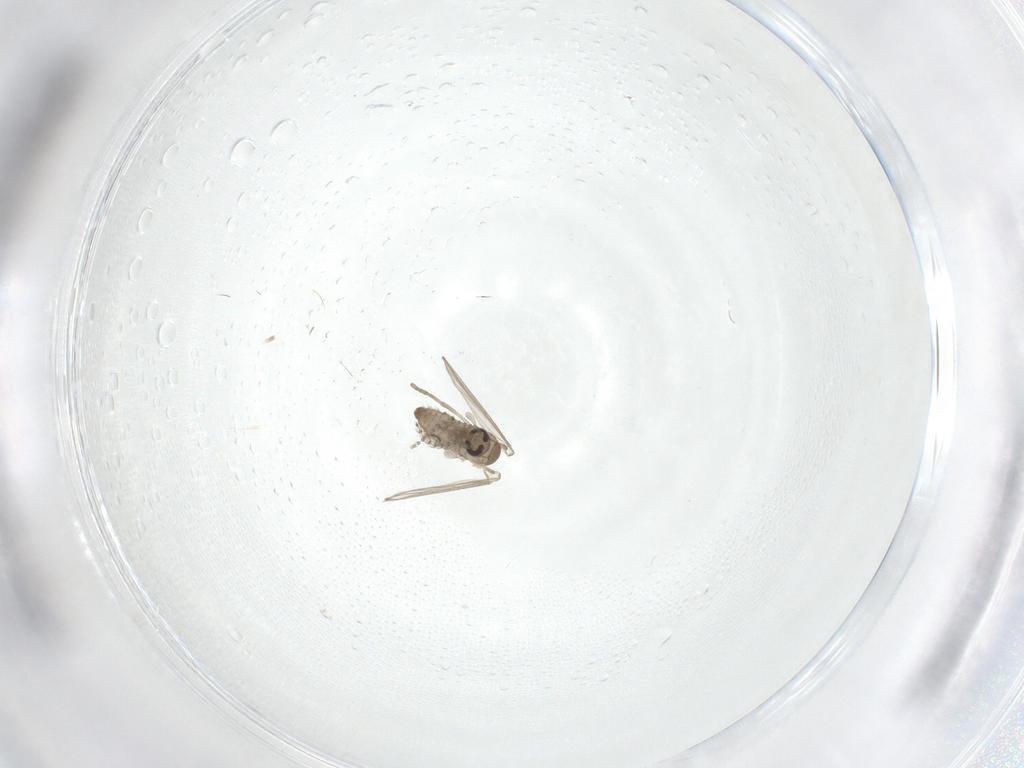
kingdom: Animalia
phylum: Arthropoda
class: Insecta
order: Diptera
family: Psychodidae
